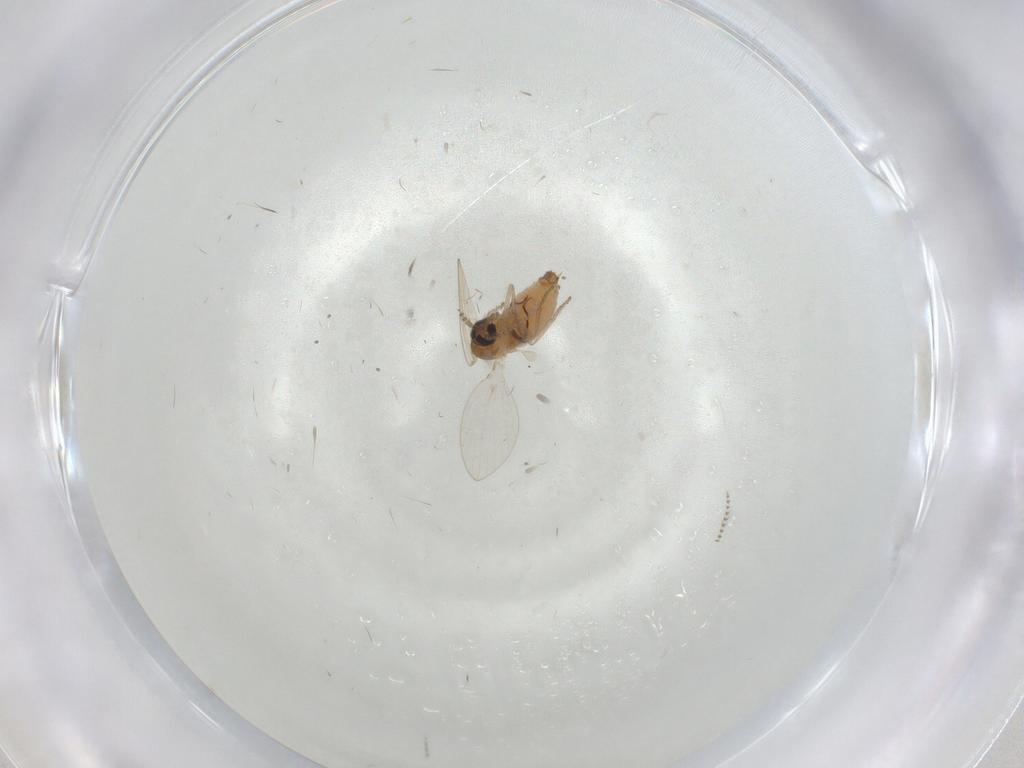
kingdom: Animalia
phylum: Arthropoda
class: Insecta
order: Diptera
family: Psychodidae
